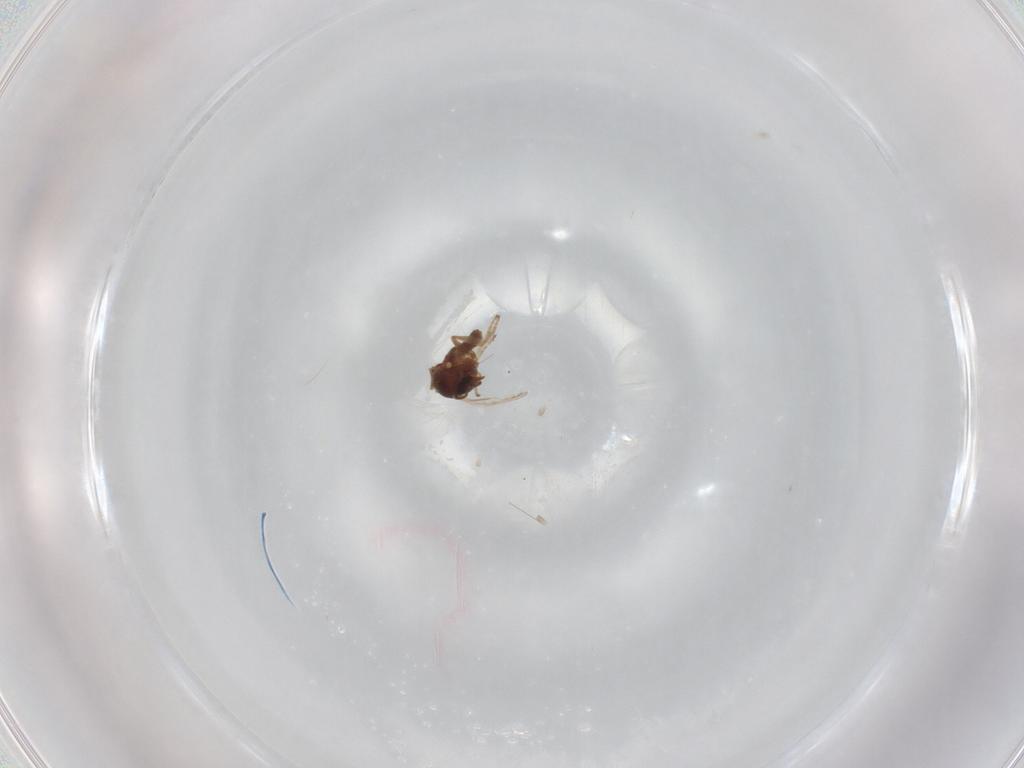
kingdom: Animalia
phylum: Arthropoda
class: Insecta
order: Diptera
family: Ceratopogonidae
